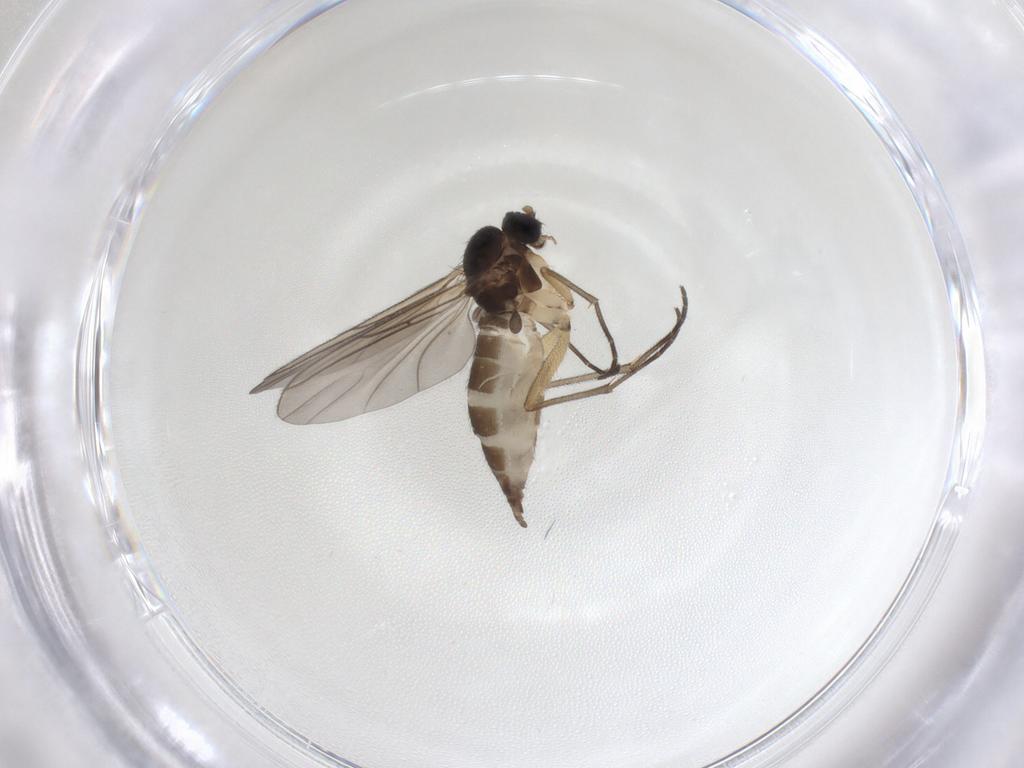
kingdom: Animalia
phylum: Arthropoda
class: Insecta
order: Diptera
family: Sciaridae
